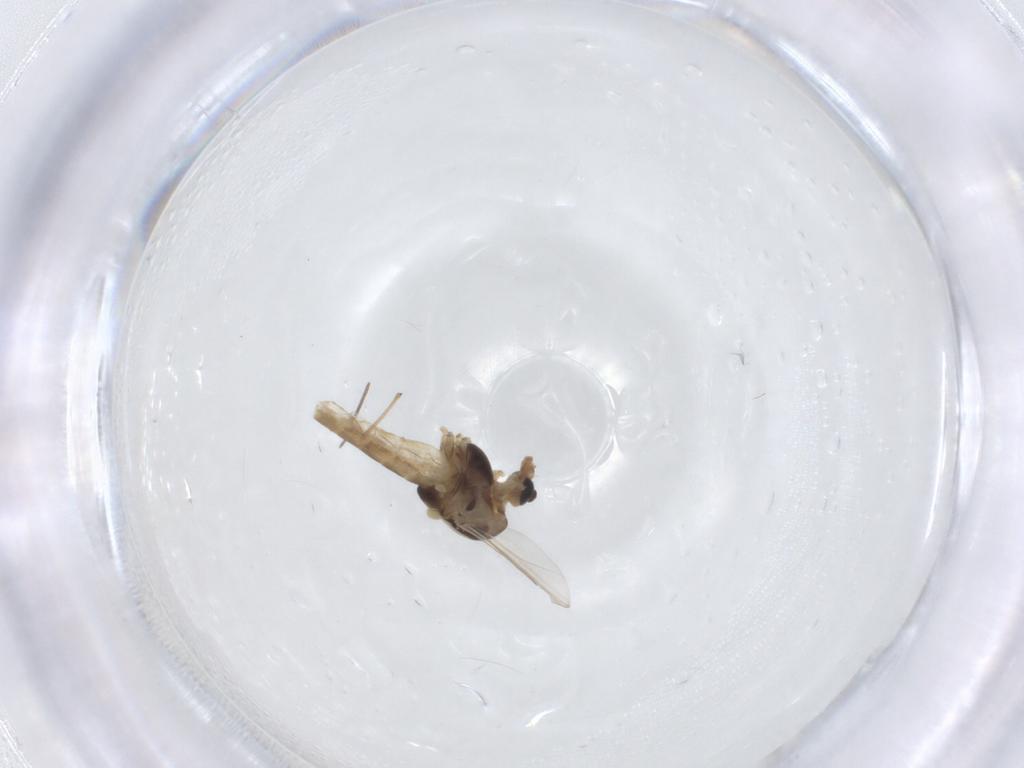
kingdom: Animalia
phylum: Arthropoda
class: Insecta
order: Diptera
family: Chironomidae
